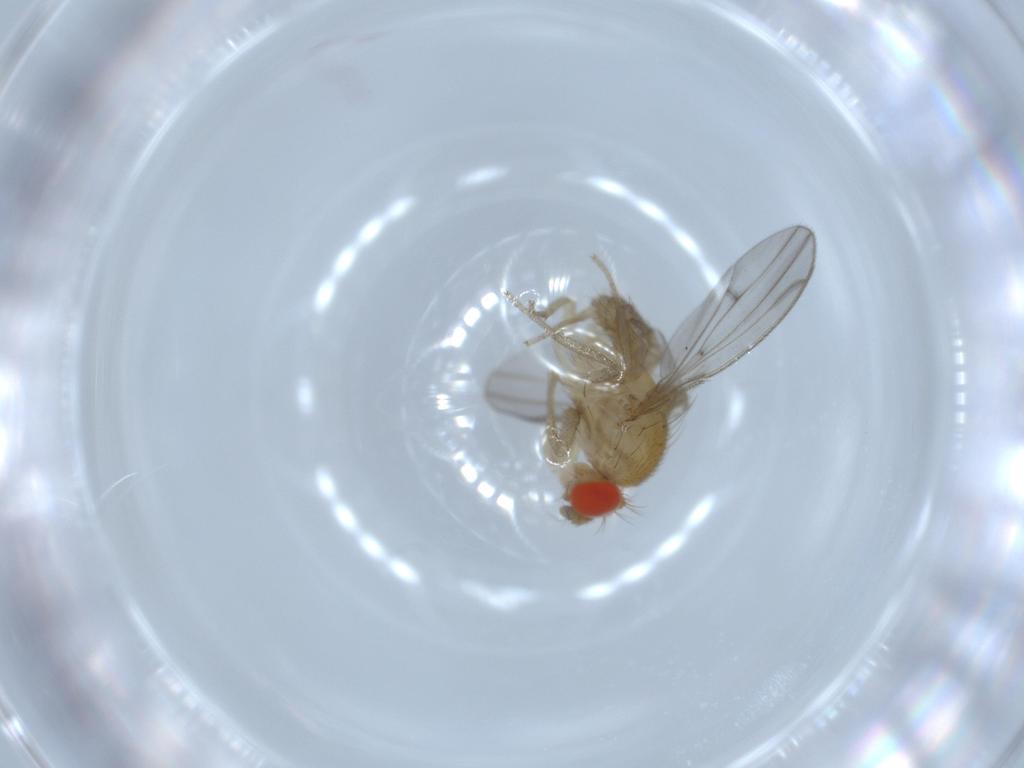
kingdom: Animalia
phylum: Arthropoda
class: Insecta
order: Diptera
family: Drosophilidae
